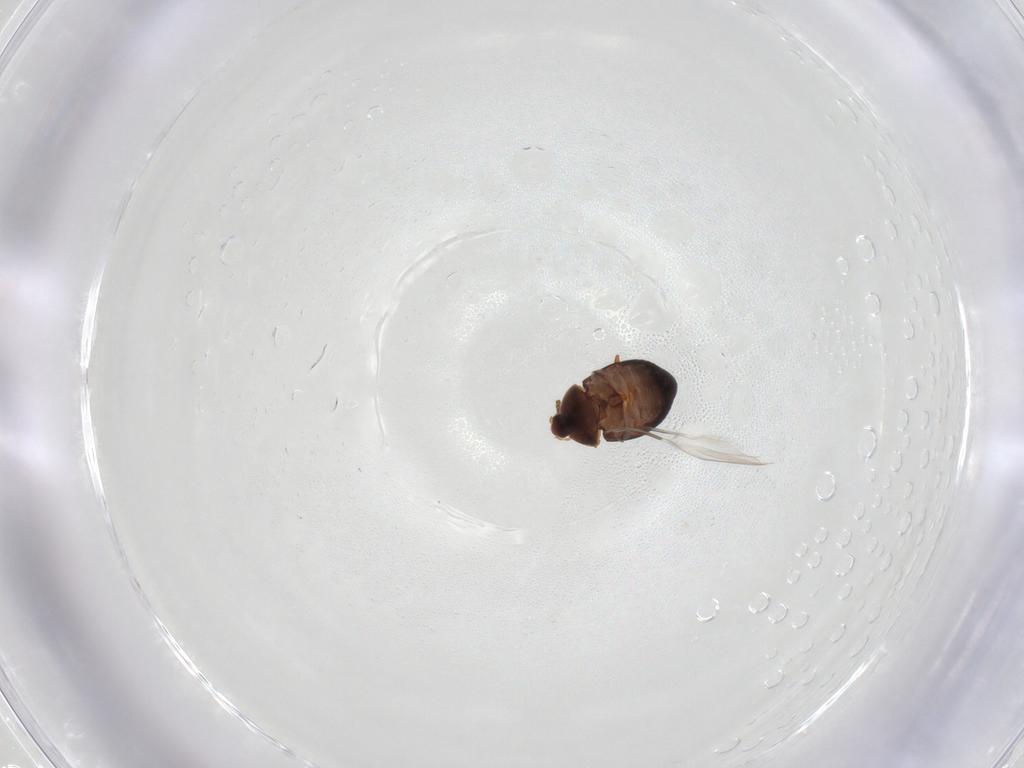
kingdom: Animalia
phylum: Arthropoda
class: Insecta
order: Coleoptera
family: Corylophidae
